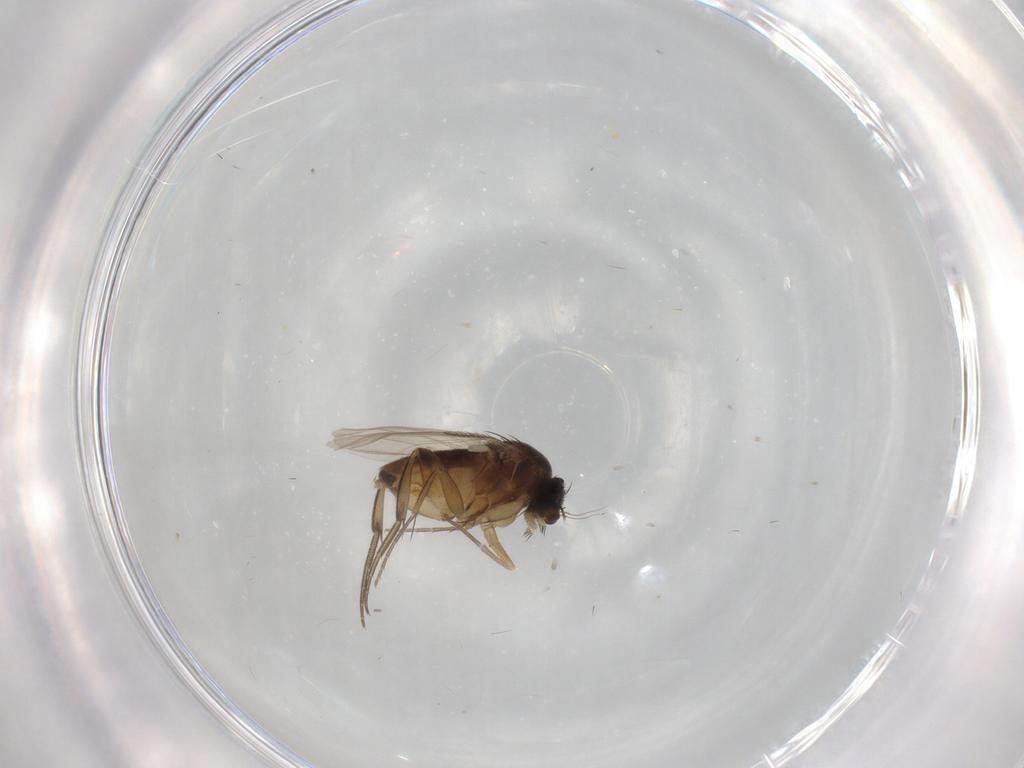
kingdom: Animalia
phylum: Arthropoda
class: Insecta
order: Diptera
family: Phoridae
